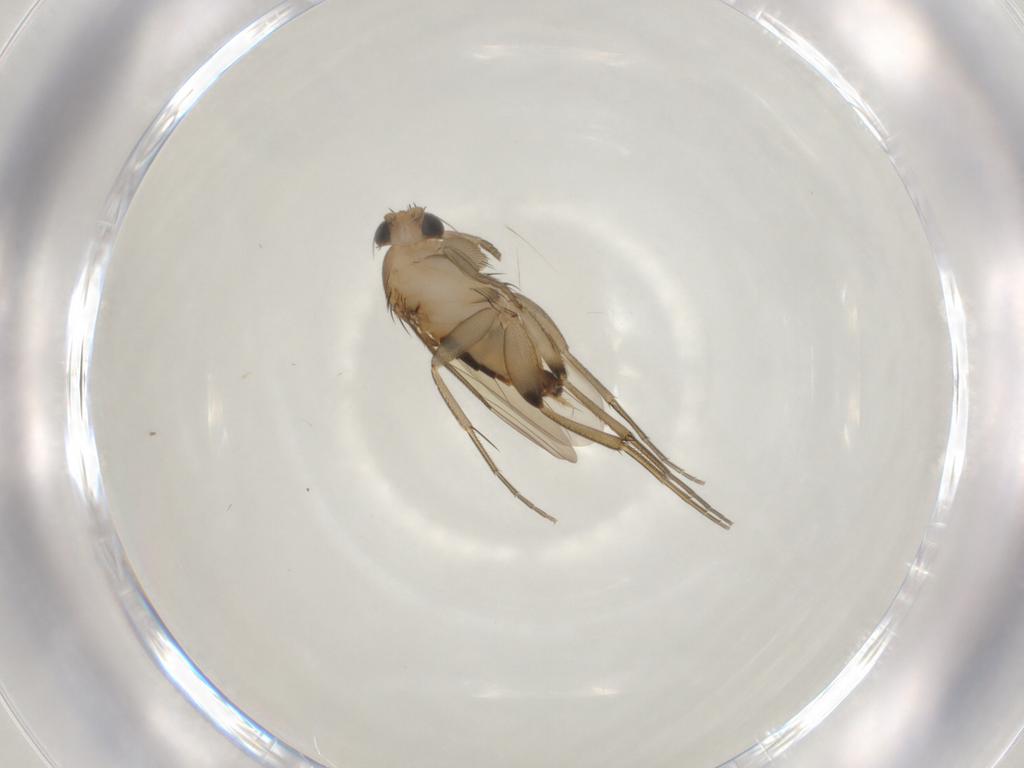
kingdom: Animalia
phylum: Arthropoda
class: Insecta
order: Diptera
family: Phoridae
